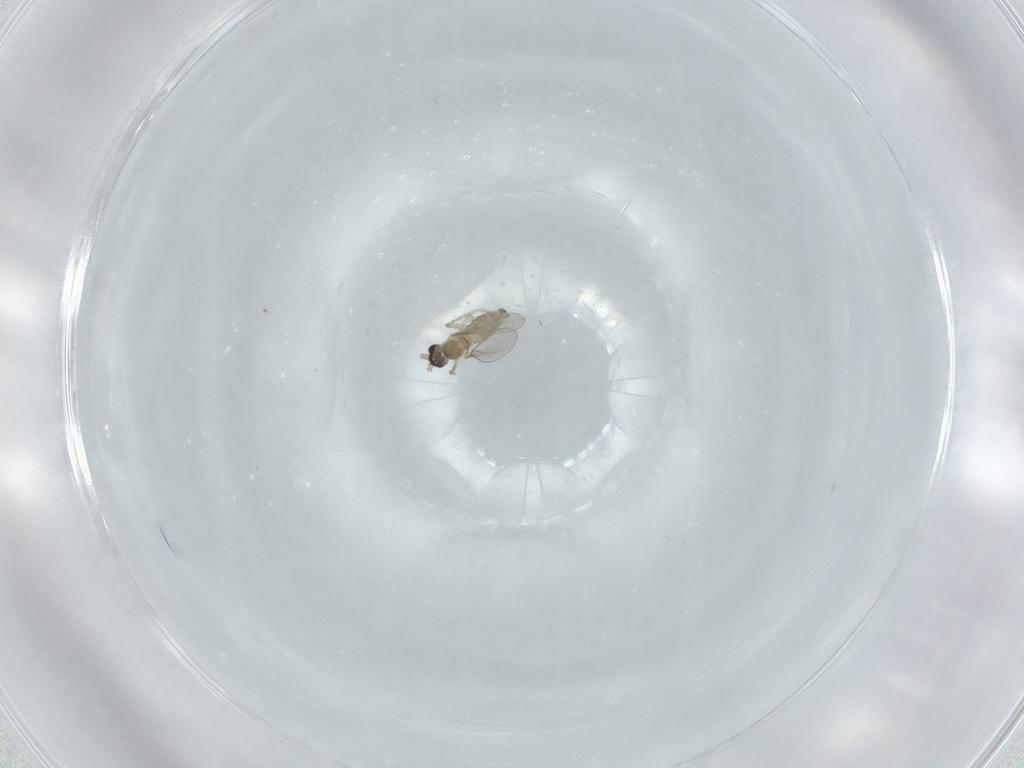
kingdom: Animalia
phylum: Arthropoda
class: Insecta
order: Diptera
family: Cecidomyiidae
